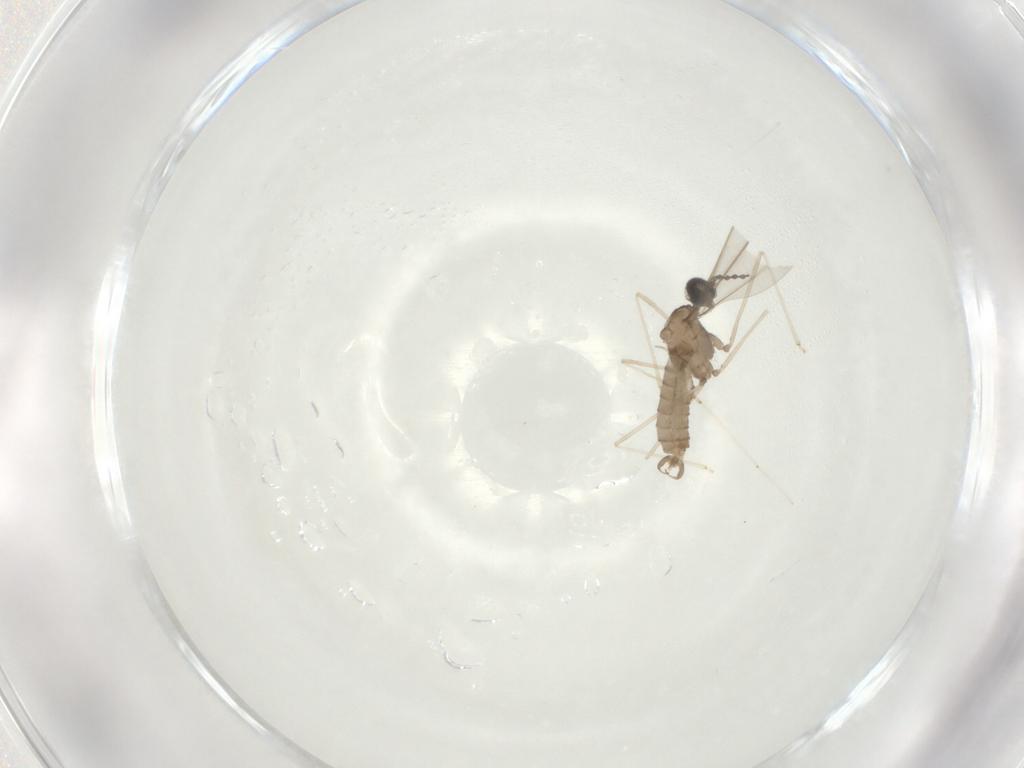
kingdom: Animalia
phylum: Arthropoda
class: Insecta
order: Diptera
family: Cecidomyiidae
